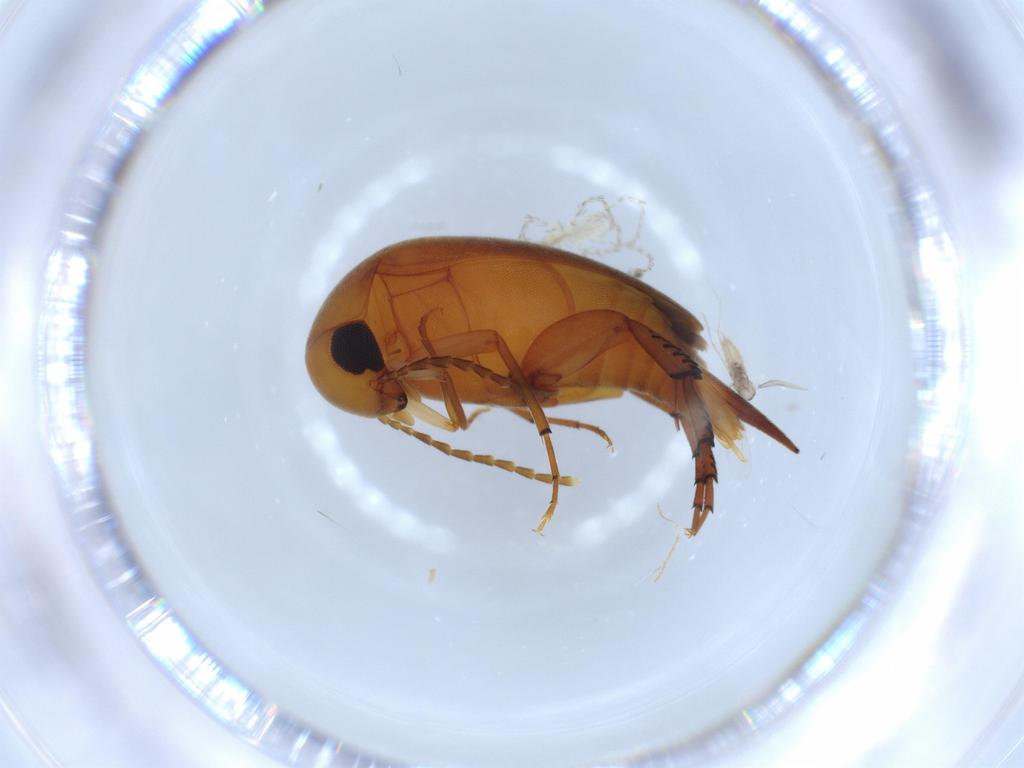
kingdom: Animalia
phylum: Arthropoda
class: Insecta
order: Coleoptera
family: Mordellidae
